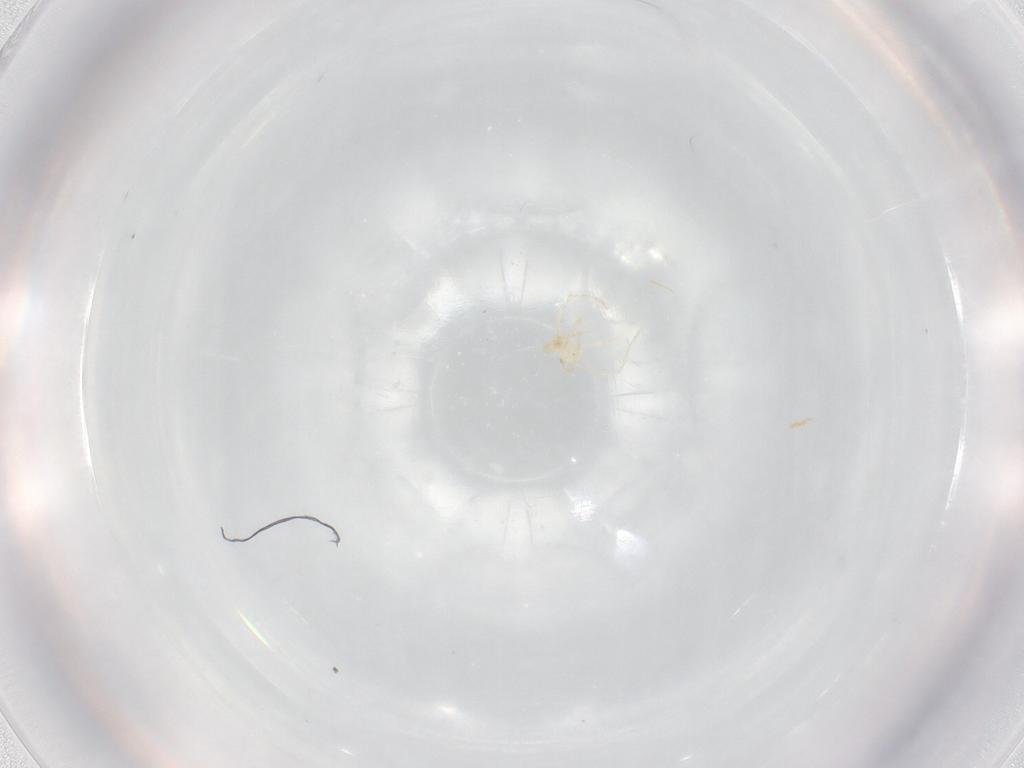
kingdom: Animalia
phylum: Arthropoda
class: Arachnida
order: Trombidiformes
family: Erythraeidae
